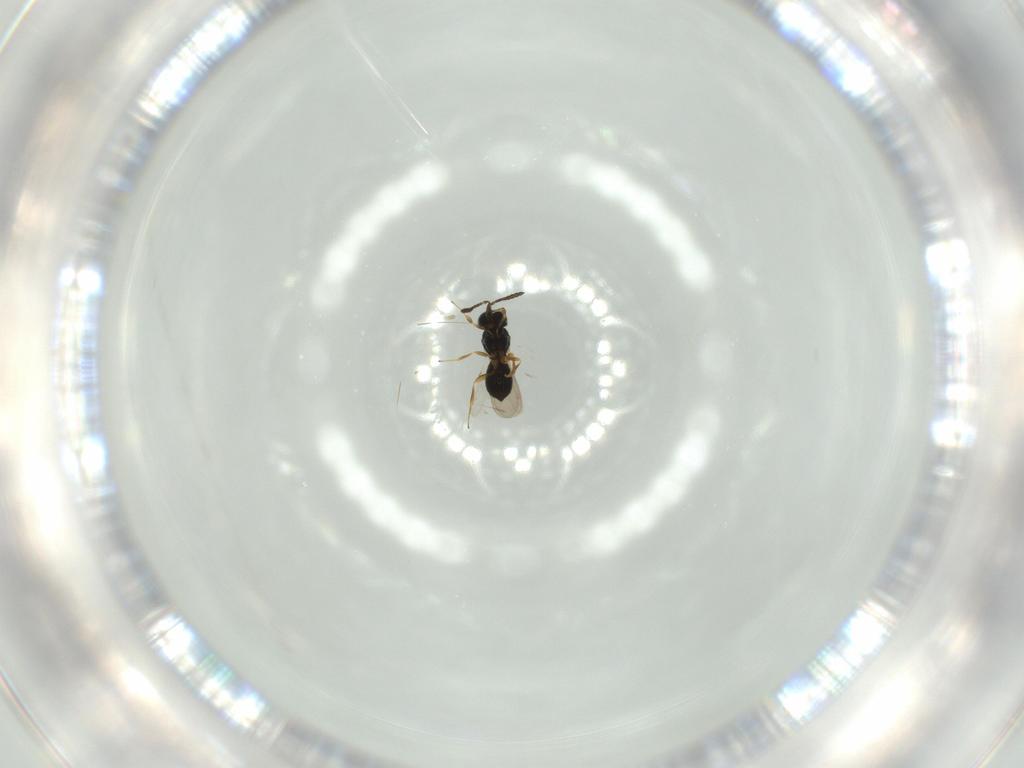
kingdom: Animalia
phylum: Arthropoda
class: Insecta
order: Hymenoptera
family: Scelionidae
